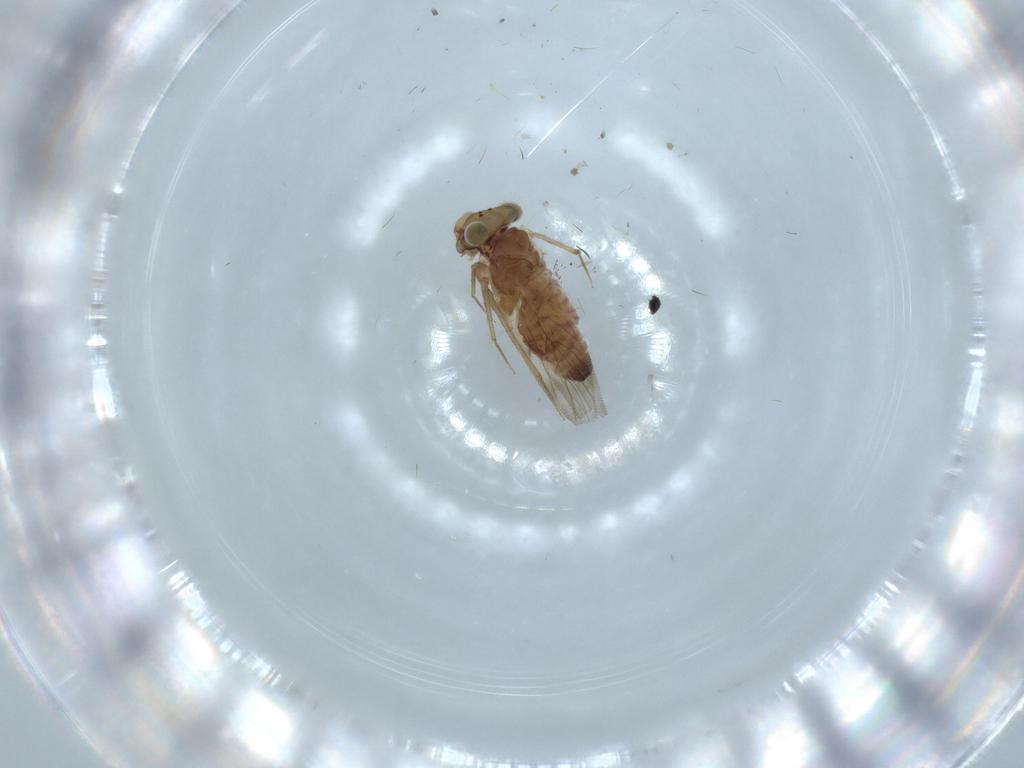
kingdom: Animalia
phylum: Arthropoda
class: Insecta
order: Psocodea
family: Lepidopsocidae
